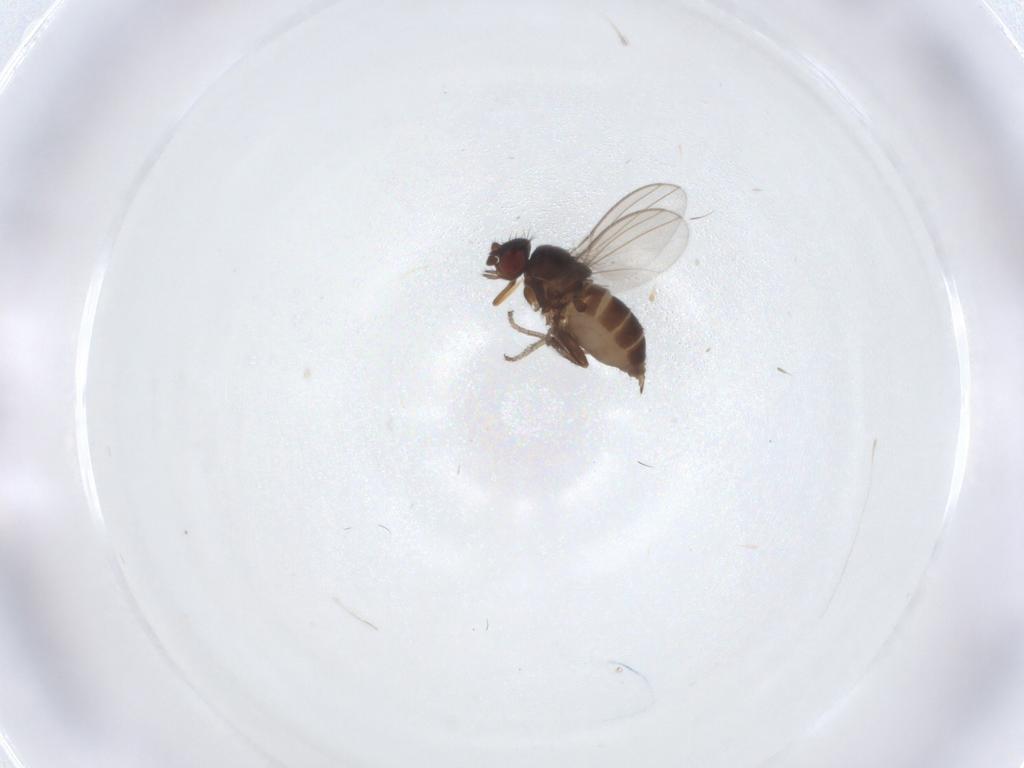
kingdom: Animalia
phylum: Arthropoda
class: Insecta
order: Diptera
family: Milichiidae
